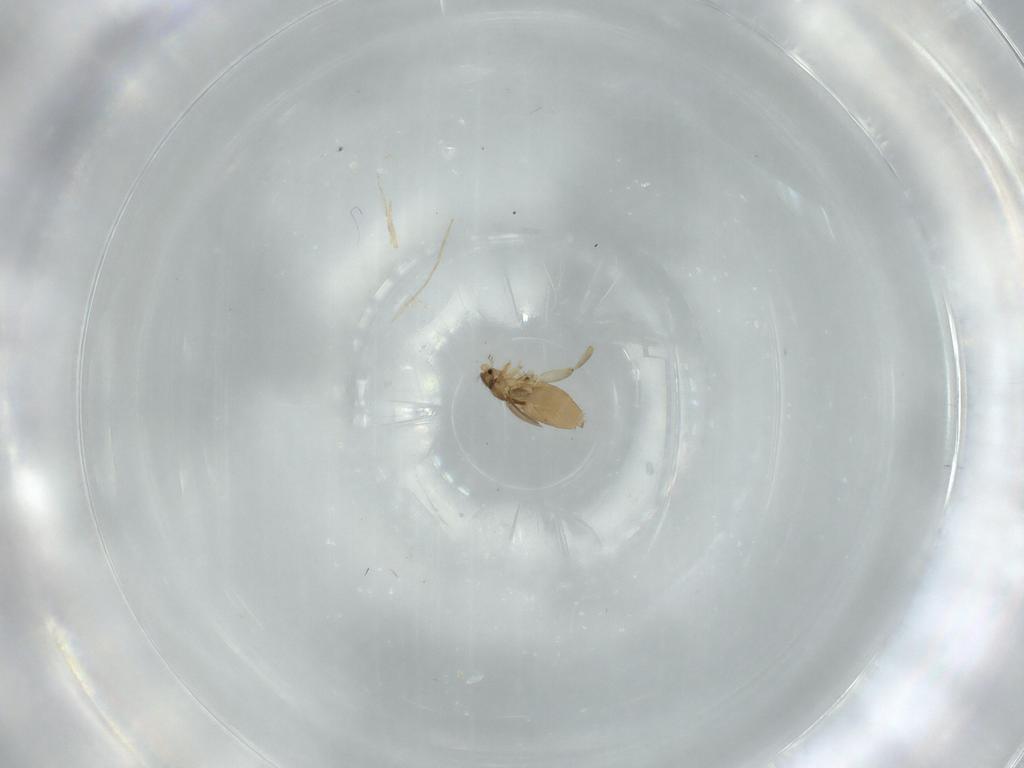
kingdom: Animalia
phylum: Arthropoda
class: Insecta
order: Diptera
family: Phoridae
